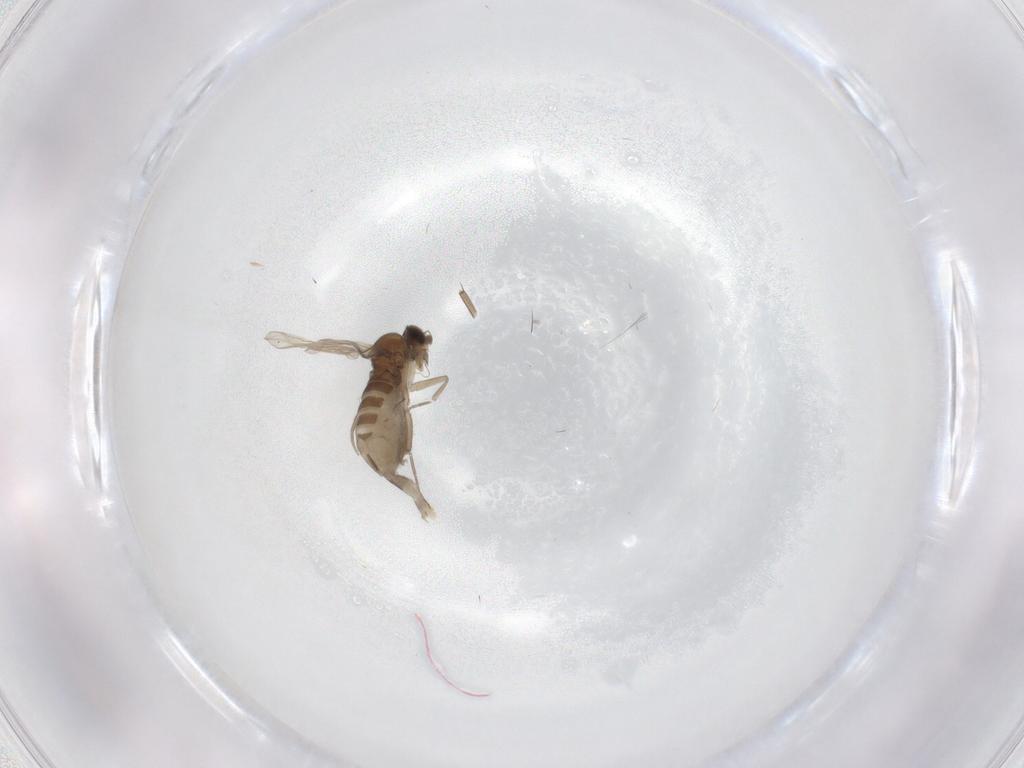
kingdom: Animalia
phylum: Arthropoda
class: Insecta
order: Diptera
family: Phoridae
